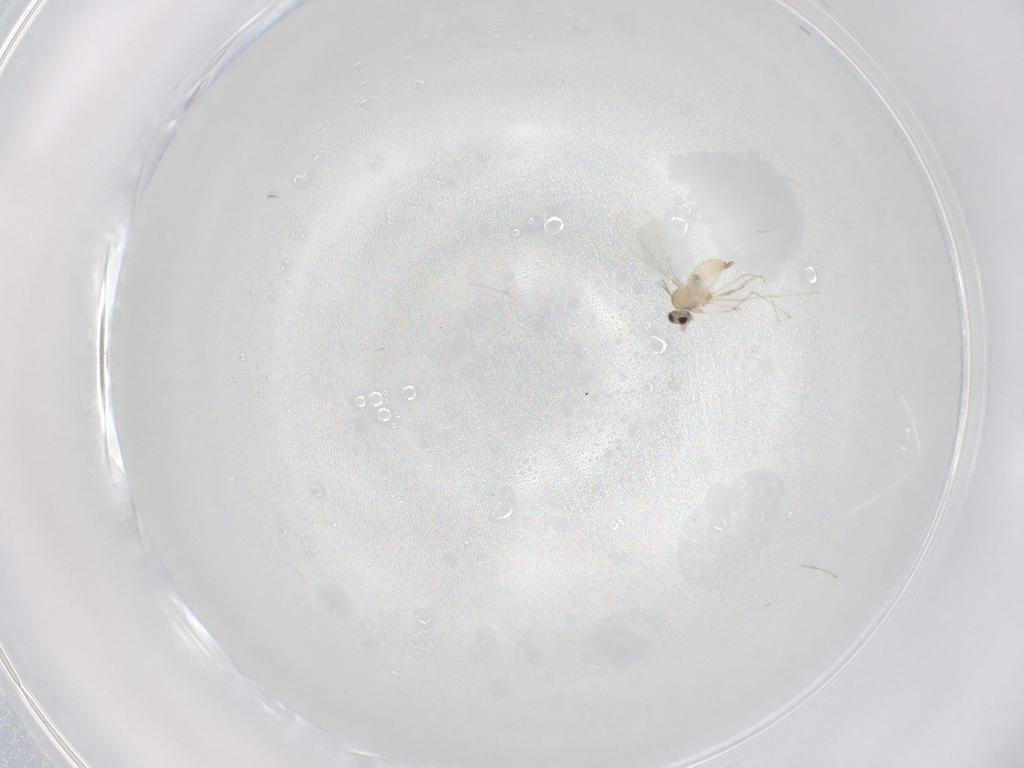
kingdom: Animalia
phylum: Arthropoda
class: Insecta
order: Diptera
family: Cecidomyiidae
